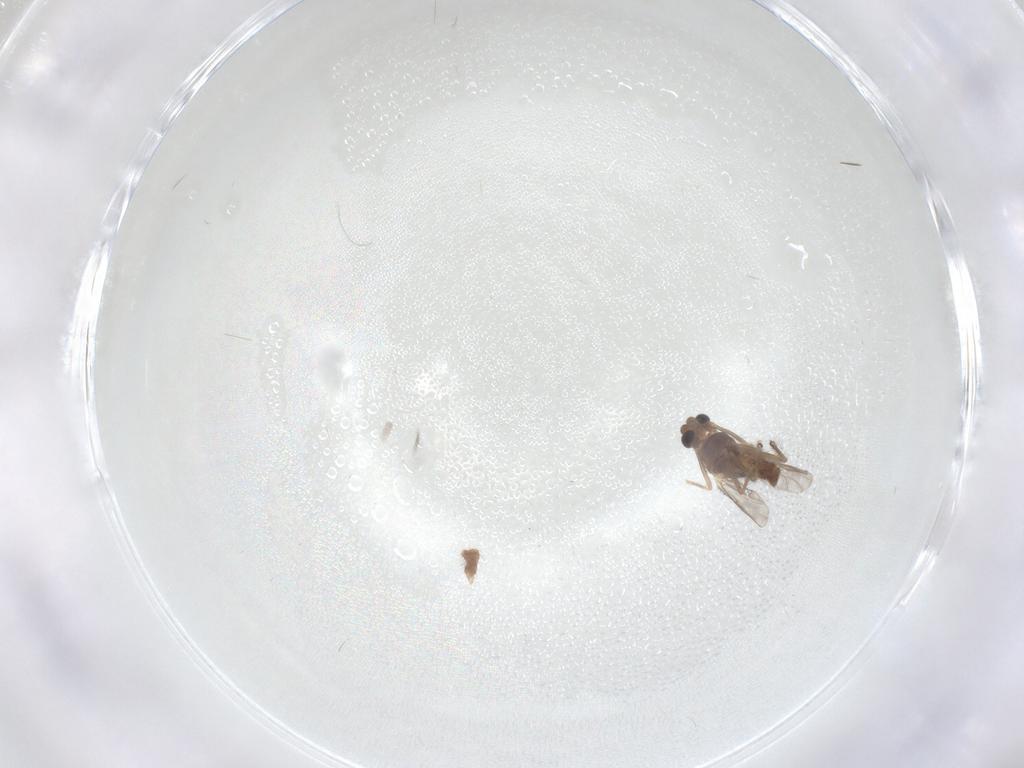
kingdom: Animalia
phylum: Arthropoda
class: Insecta
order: Diptera
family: Chironomidae
